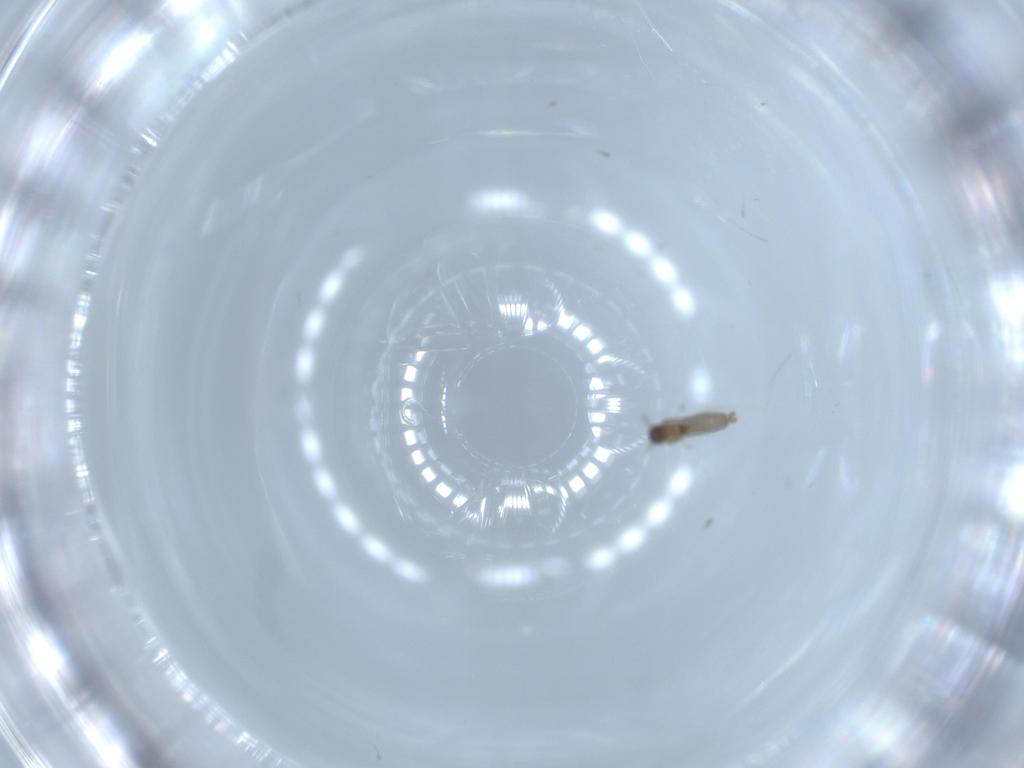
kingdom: Animalia
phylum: Arthropoda
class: Insecta
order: Diptera
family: Cecidomyiidae
